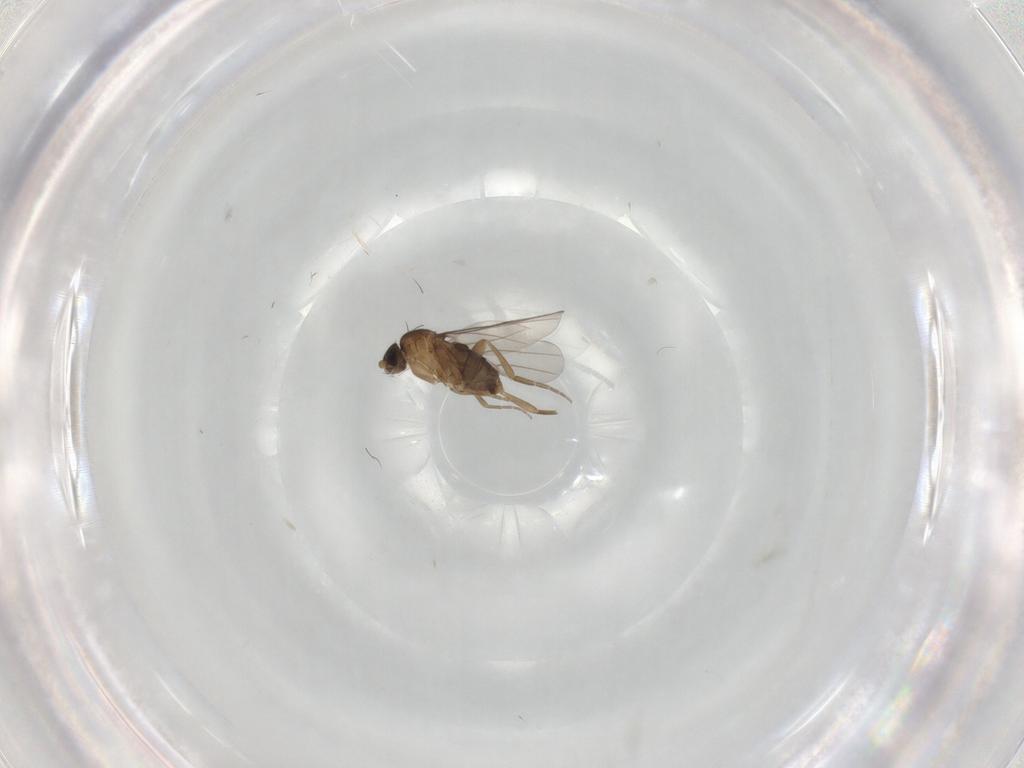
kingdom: Animalia
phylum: Arthropoda
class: Insecta
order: Diptera
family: Phoridae
